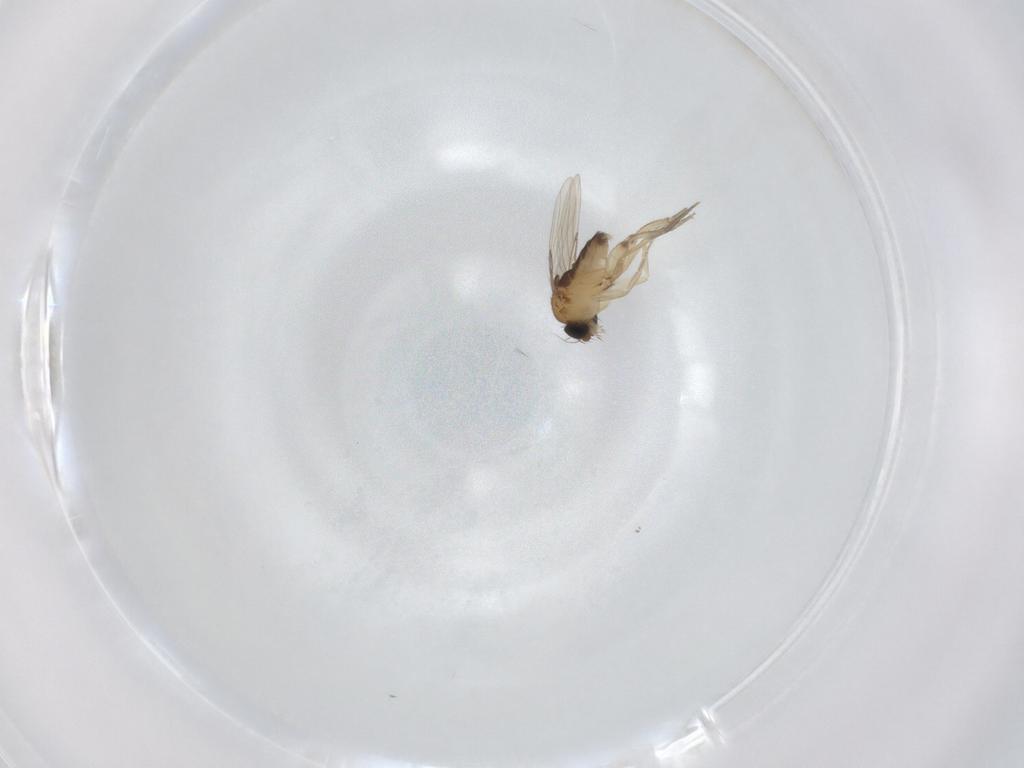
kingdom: Animalia
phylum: Arthropoda
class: Insecta
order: Diptera
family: Phoridae
